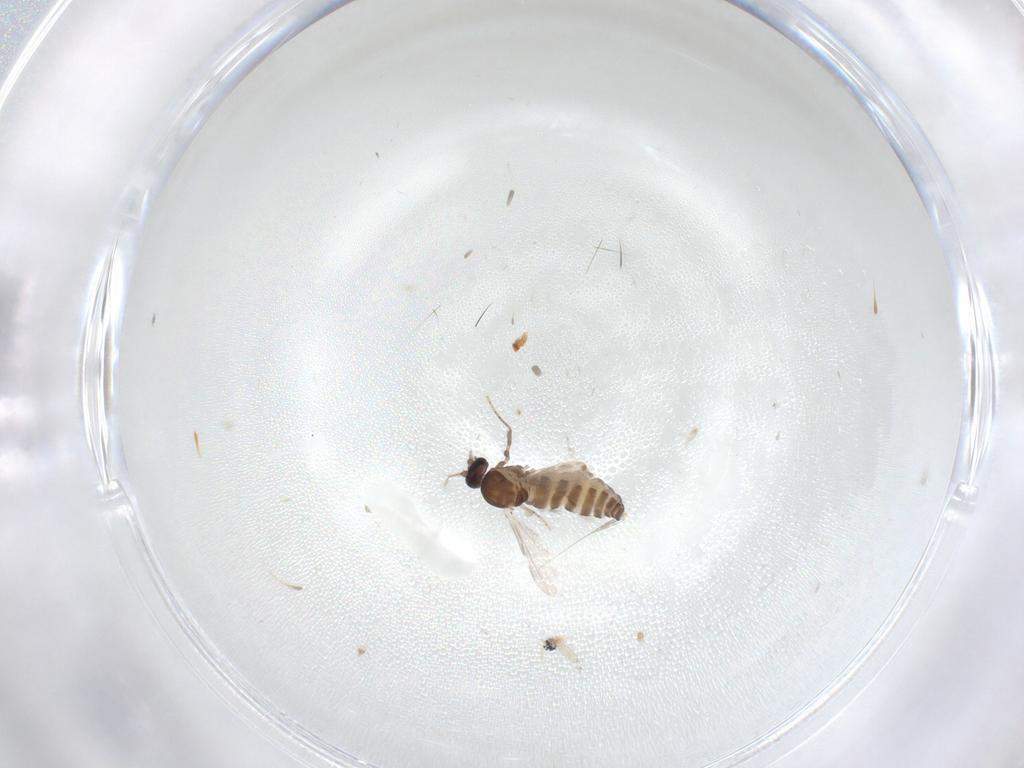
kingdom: Animalia
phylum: Arthropoda
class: Insecta
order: Diptera
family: Ceratopogonidae
